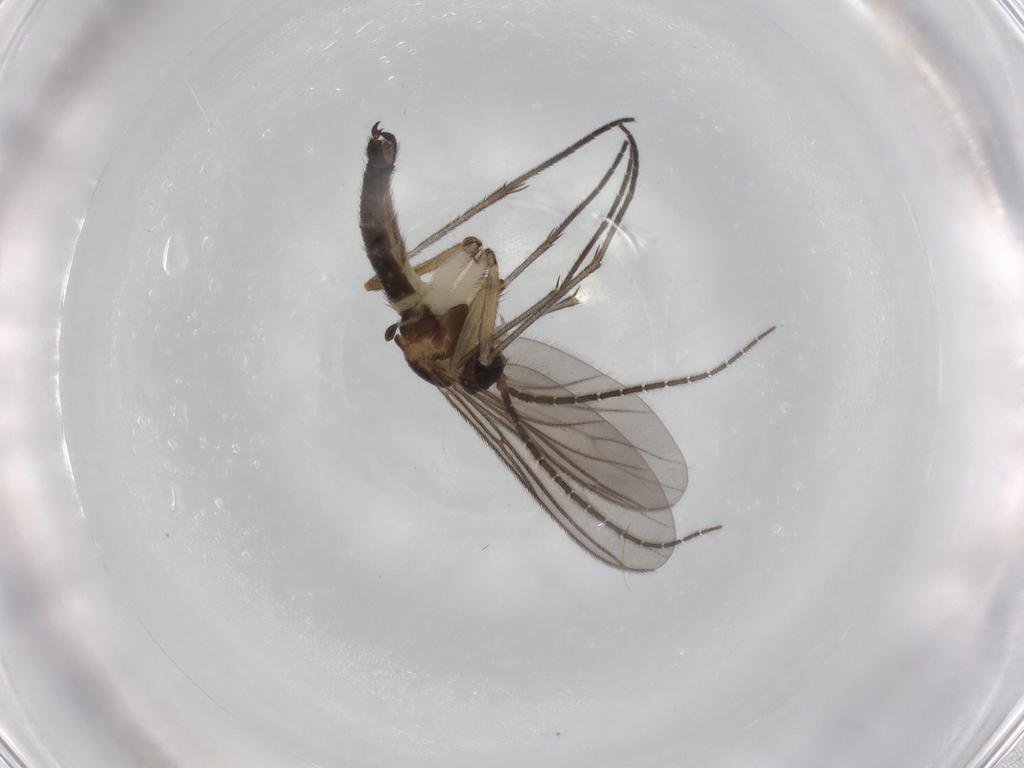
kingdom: Animalia
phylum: Arthropoda
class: Insecta
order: Diptera
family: Sciaridae
